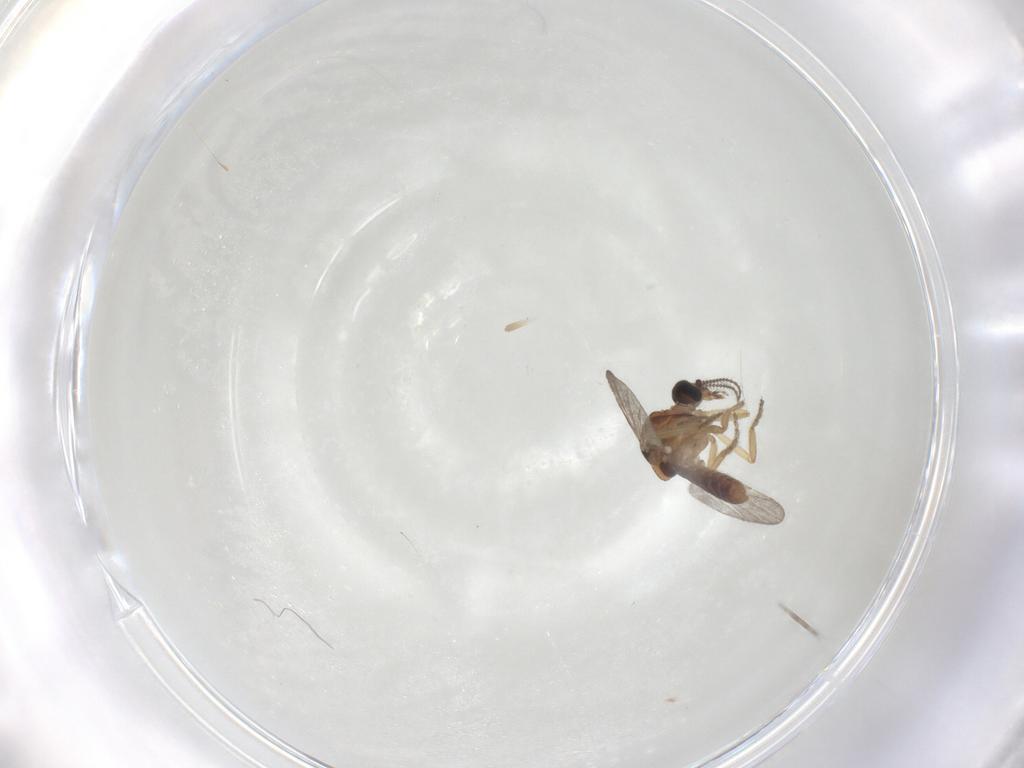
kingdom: Animalia
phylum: Arthropoda
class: Insecta
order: Diptera
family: Ceratopogonidae
